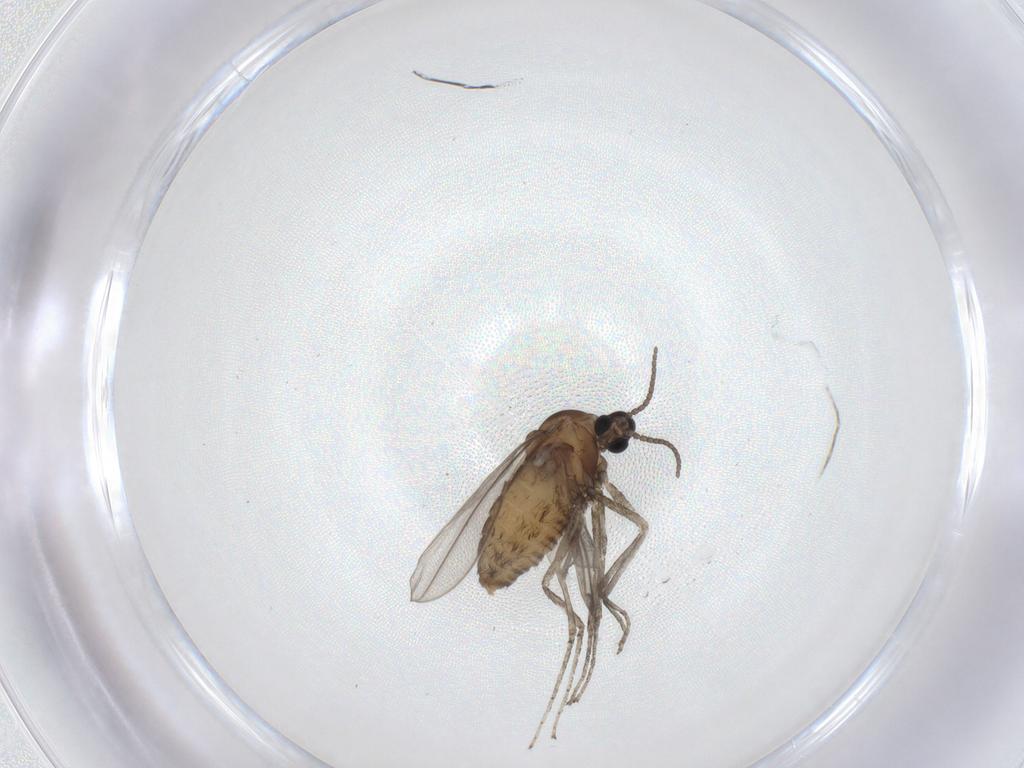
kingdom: Animalia
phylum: Arthropoda
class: Insecta
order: Diptera
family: Cecidomyiidae
